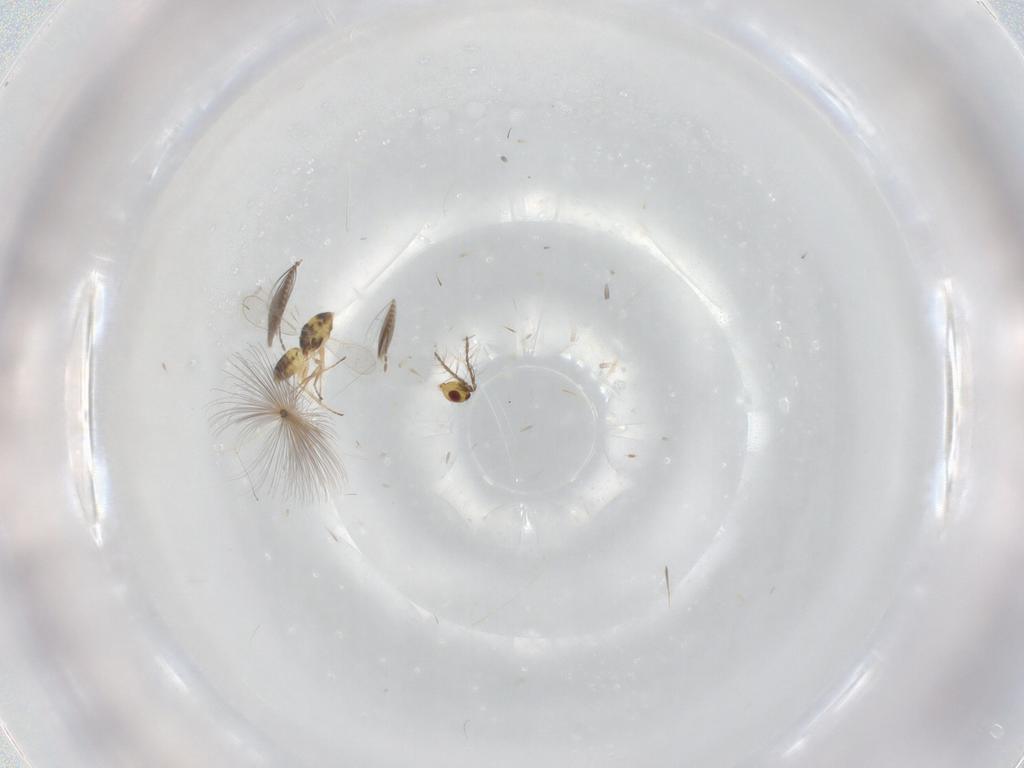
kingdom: Animalia
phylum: Arthropoda
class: Insecta
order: Hymenoptera
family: Eulophidae
